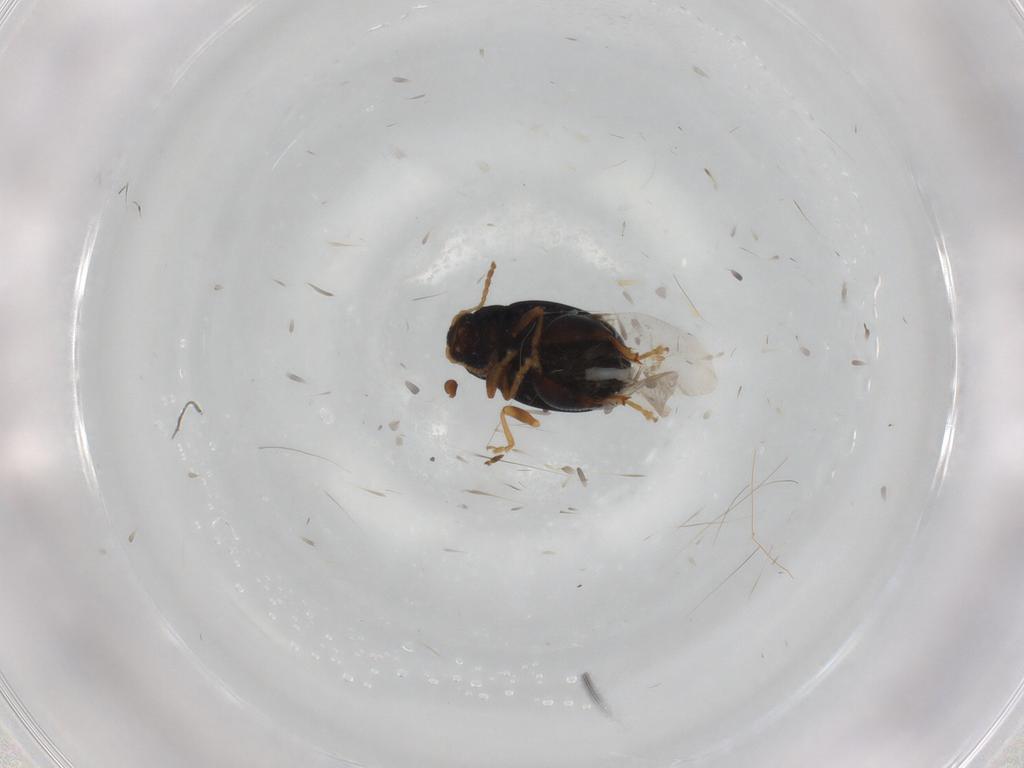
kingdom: Animalia
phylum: Arthropoda
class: Insecta
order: Coleoptera
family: Chrysomelidae
